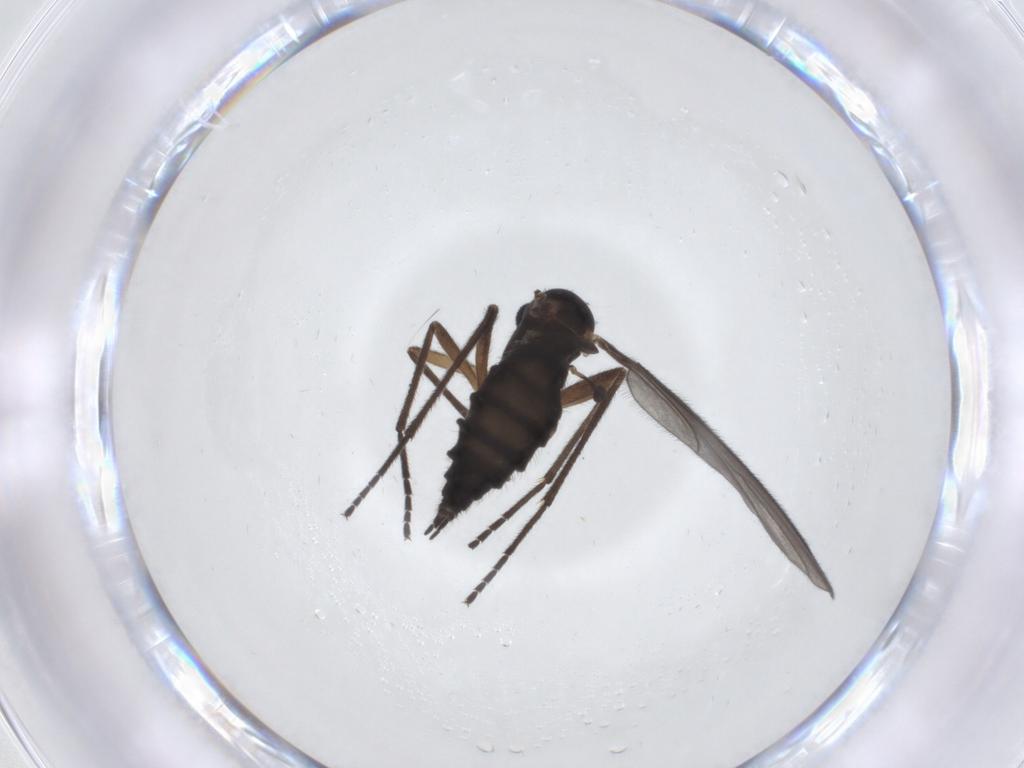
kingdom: Animalia
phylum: Arthropoda
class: Insecta
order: Diptera
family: Sciaridae
